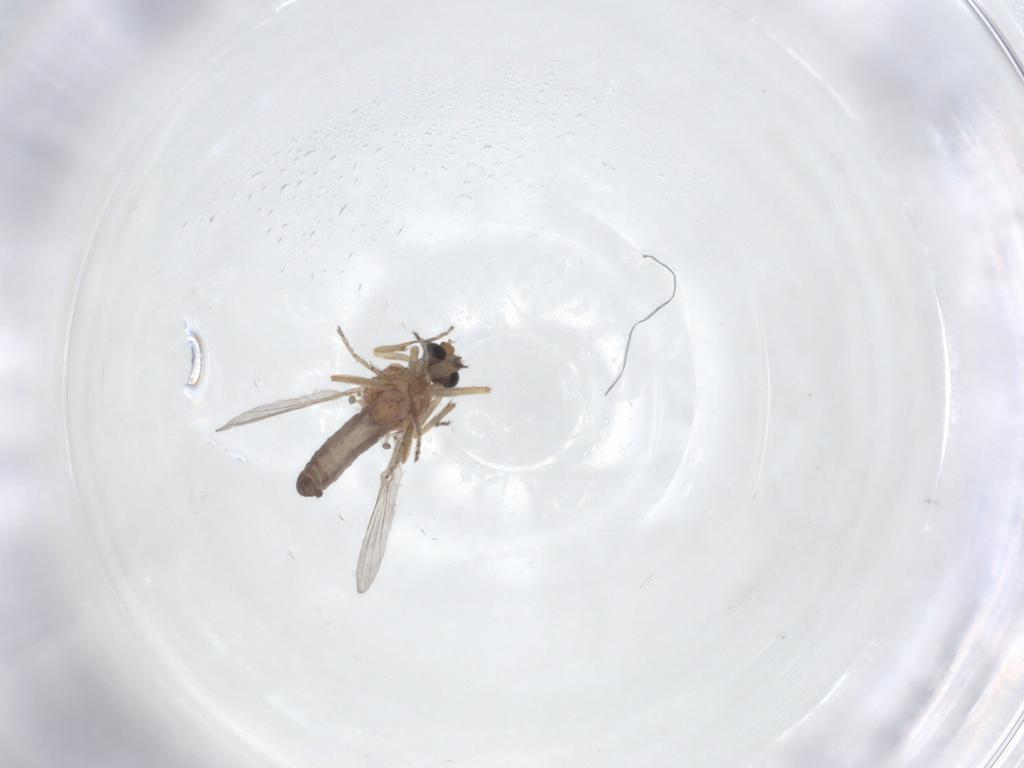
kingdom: Animalia
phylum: Arthropoda
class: Insecta
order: Diptera
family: Ceratopogonidae
